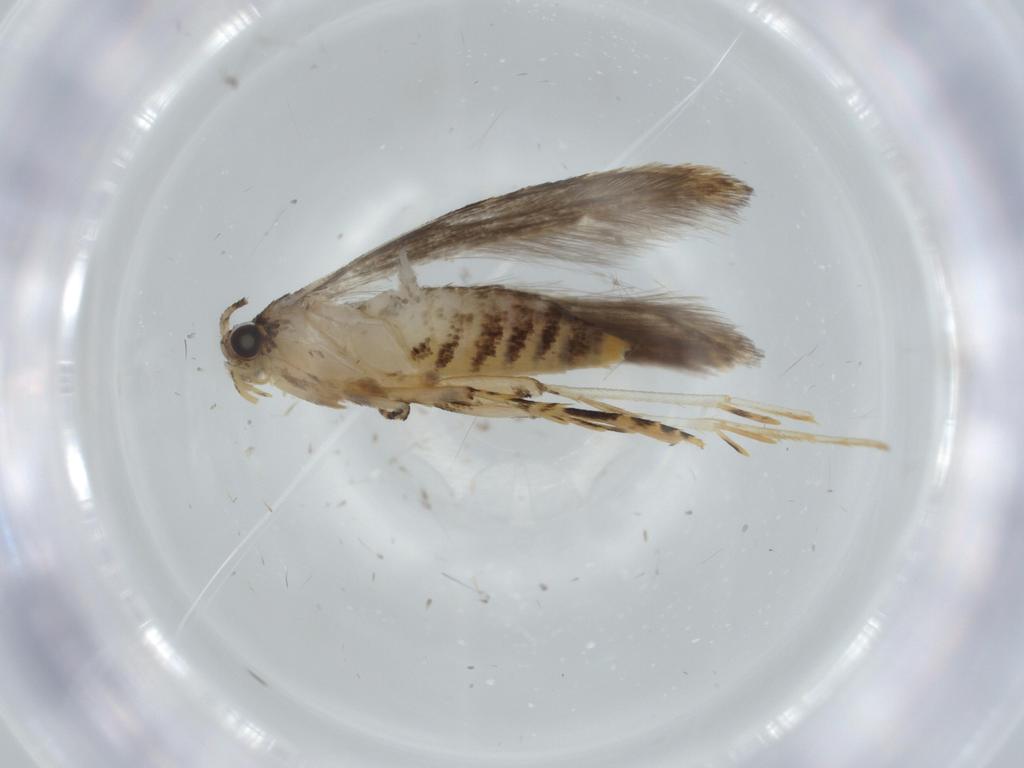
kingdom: Animalia
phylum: Arthropoda
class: Insecta
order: Lepidoptera
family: Tineidae
